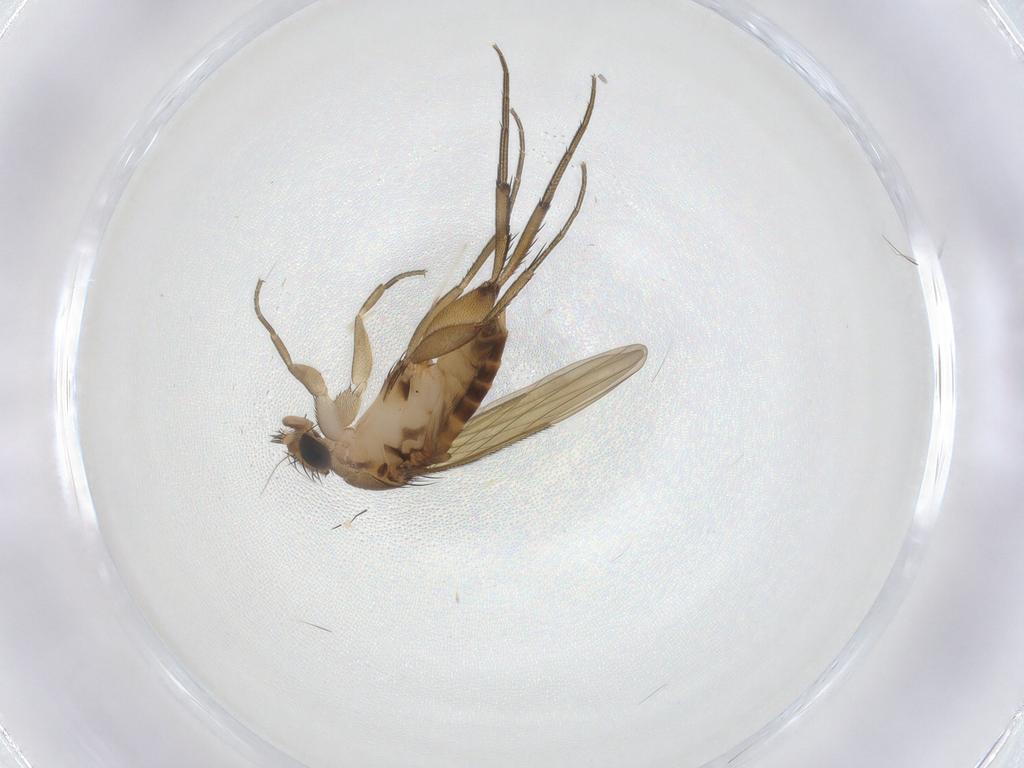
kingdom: Animalia
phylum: Arthropoda
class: Insecta
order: Diptera
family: Phoridae
